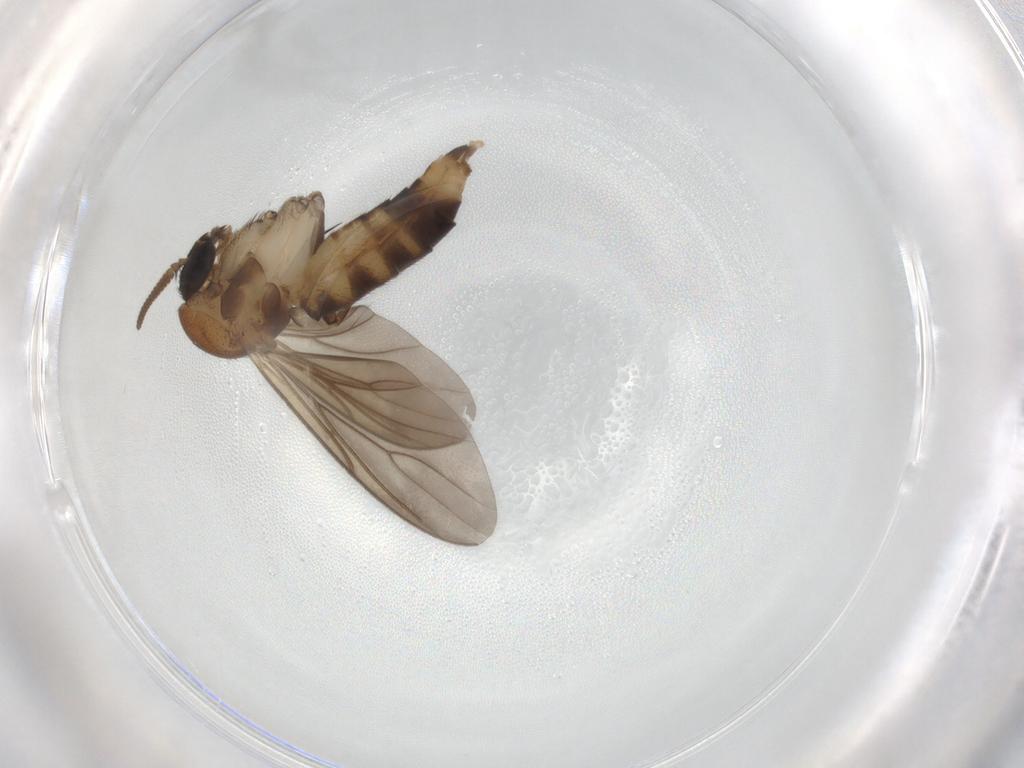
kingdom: Animalia
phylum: Arthropoda
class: Insecta
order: Diptera
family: Mycetophilidae
